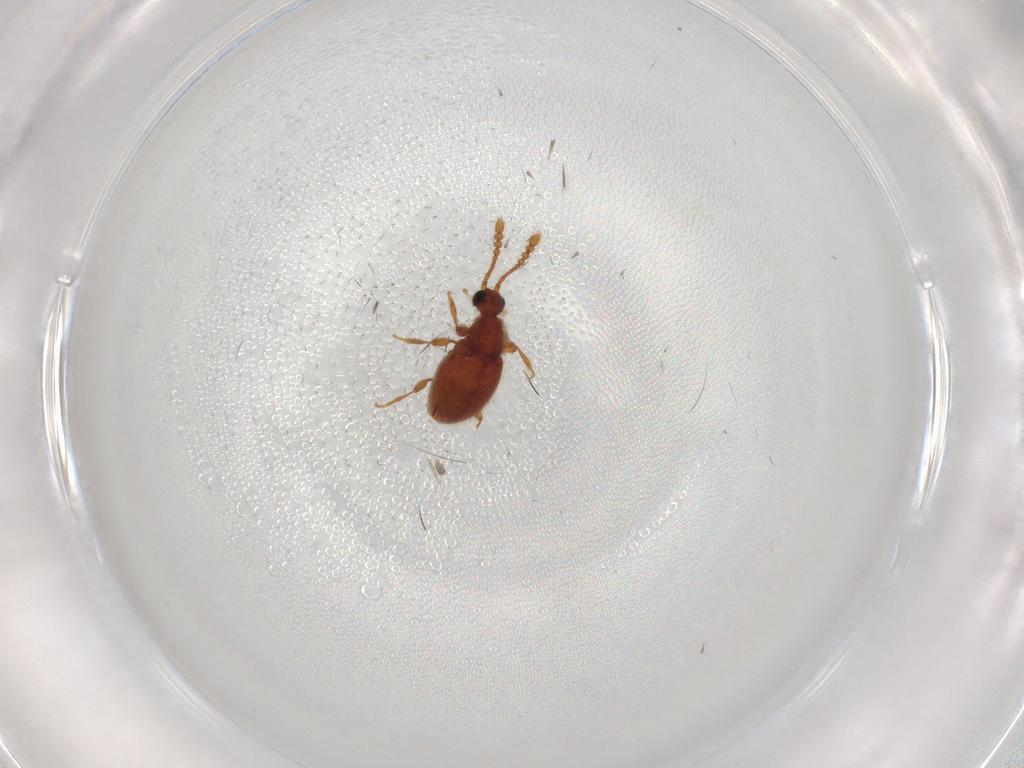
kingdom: Animalia
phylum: Arthropoda
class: Insecta
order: Coleoptera
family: Staphylinidae
